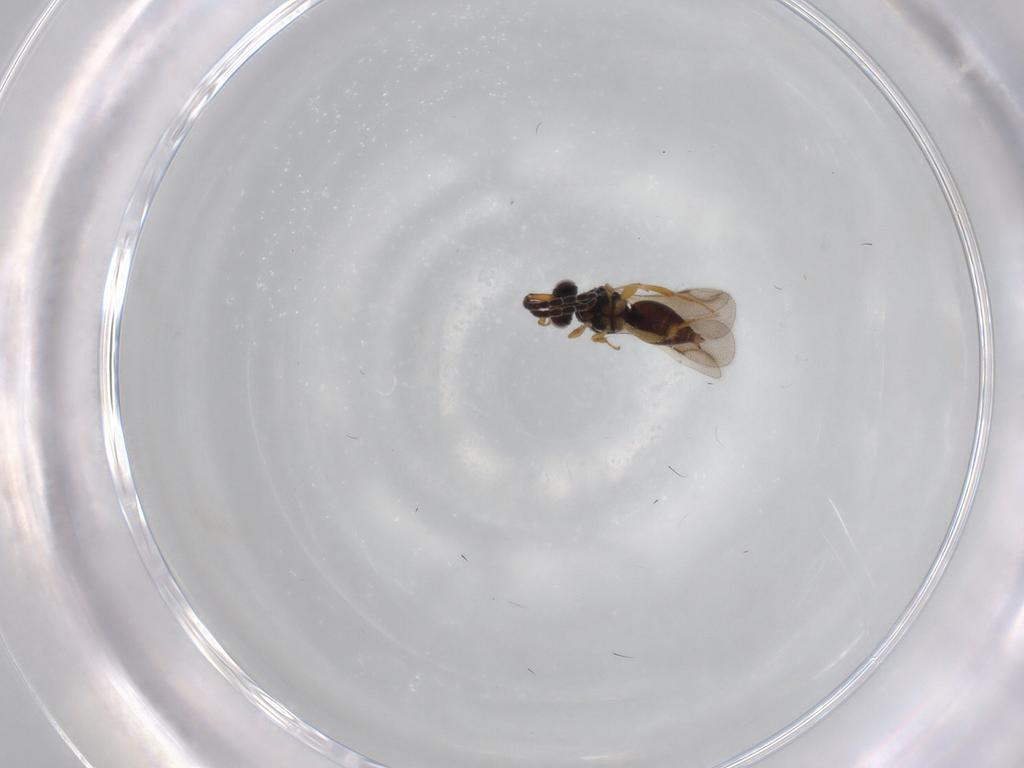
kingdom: Animalia
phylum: Arthropoda
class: Insecta
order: Hymenoptera
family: Ceraphronidae
